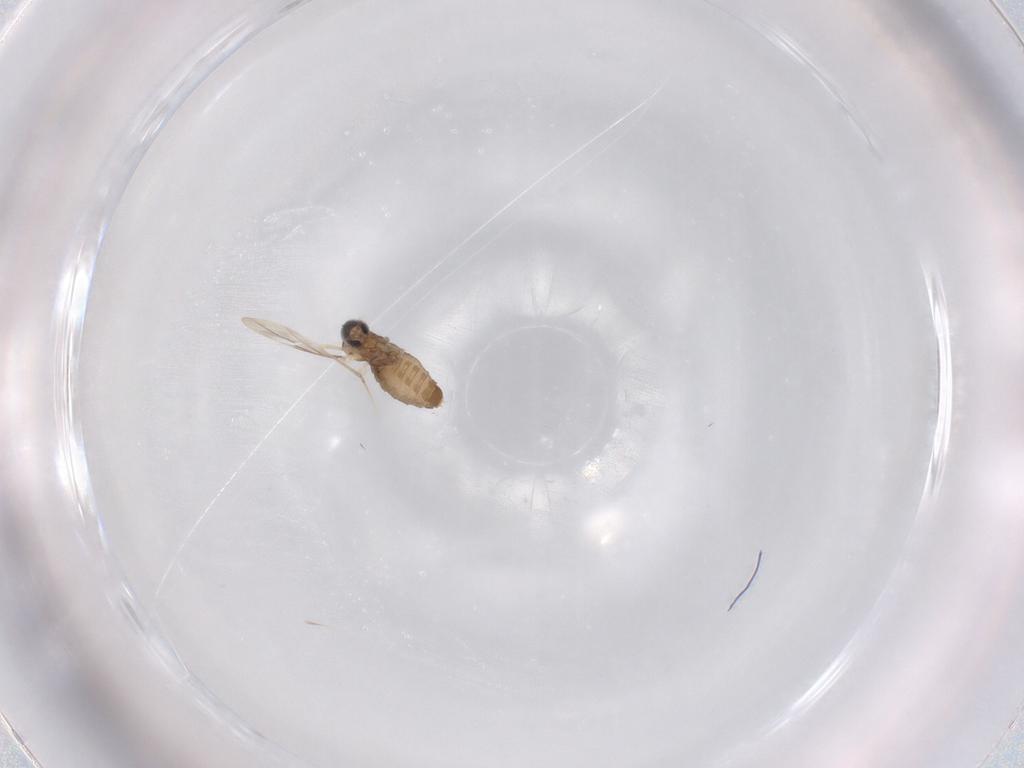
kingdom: Animalia
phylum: Arthropoda
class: Insecta
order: Diptera
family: Cecidomyiidae
